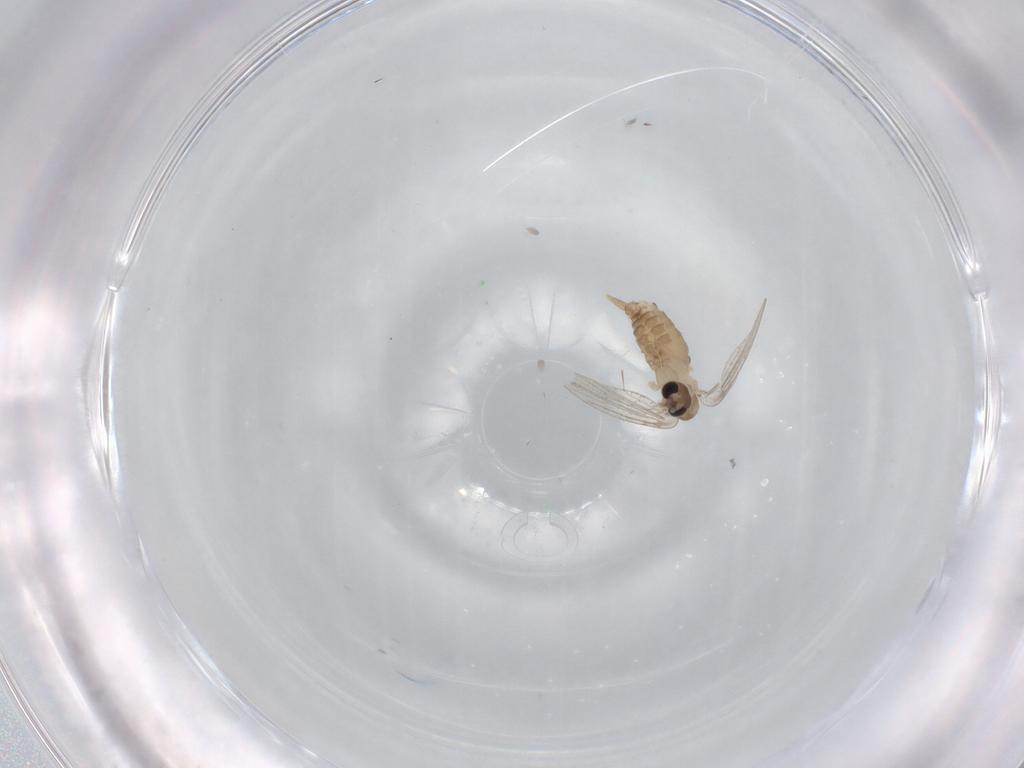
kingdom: Animalia
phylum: Arthropoda
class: Insecta
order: Diptera
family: Psychodidae
